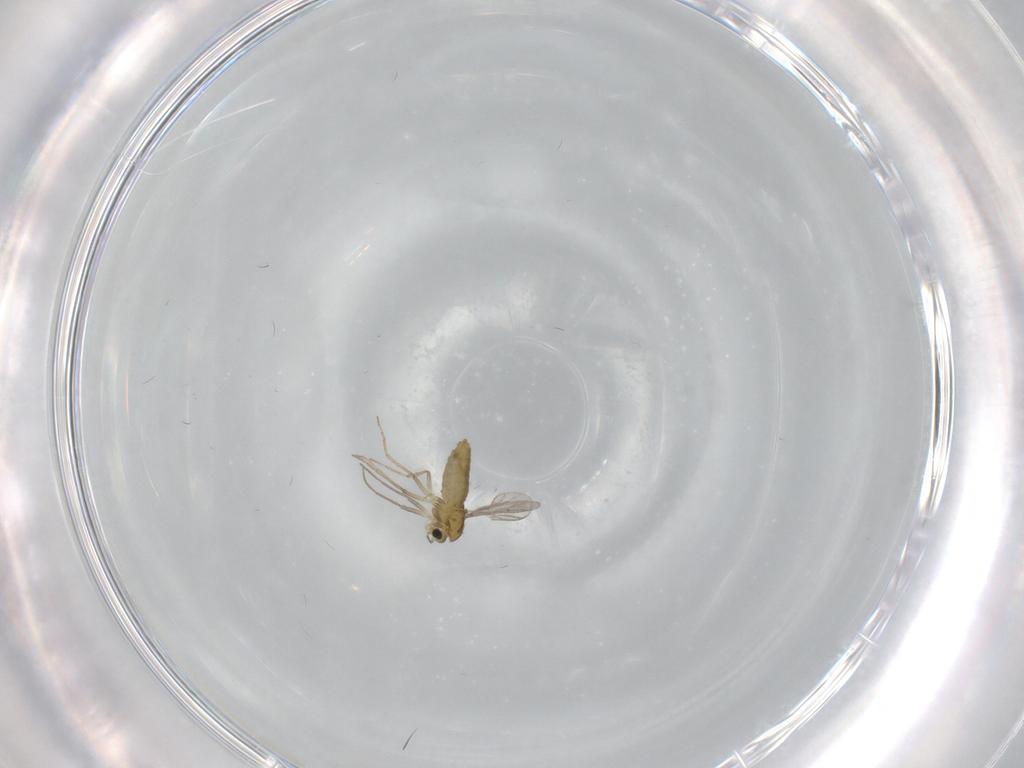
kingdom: Animalia
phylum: Arthropoda
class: Insecta
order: Diptera
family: Chironomidae
